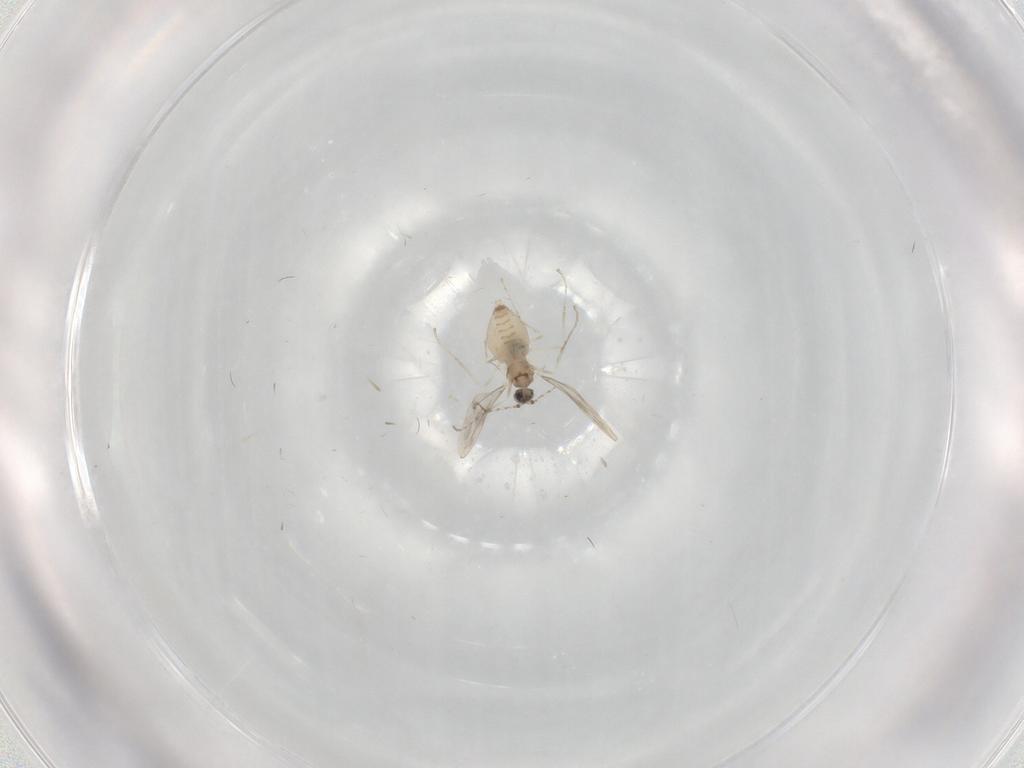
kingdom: Animalia
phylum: Arthropoda
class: Insecta
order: Diptera
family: Cecidomyiidae
